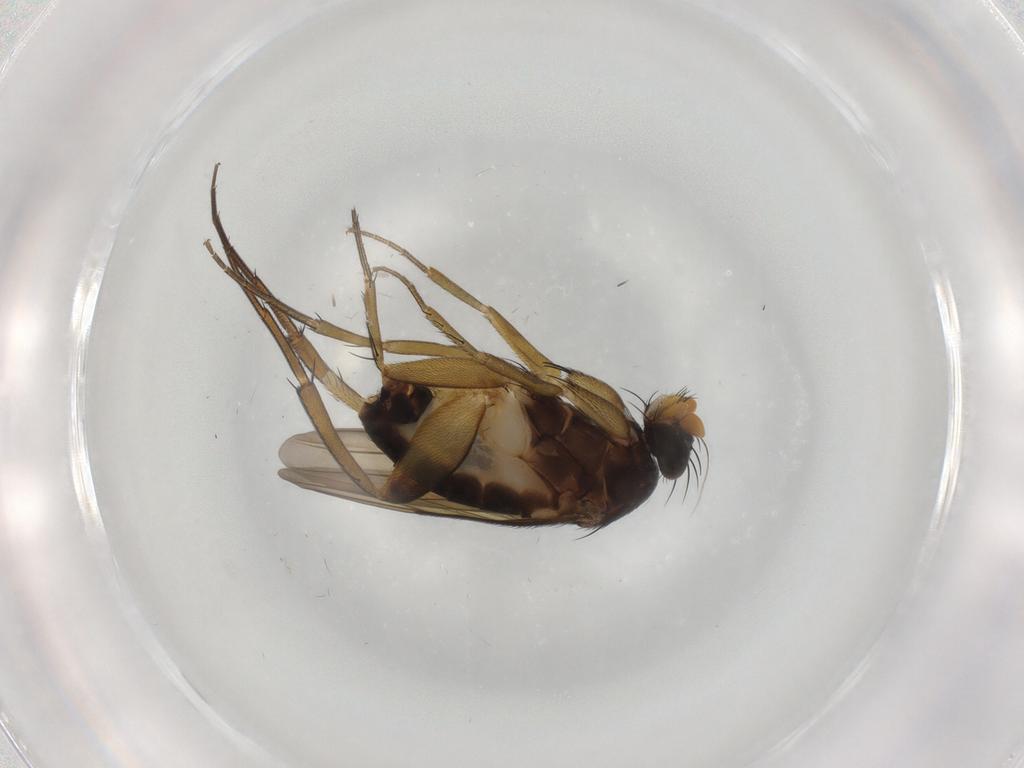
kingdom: Animalia
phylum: Arthropoda
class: Insecta
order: Diptera
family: Phoridae
